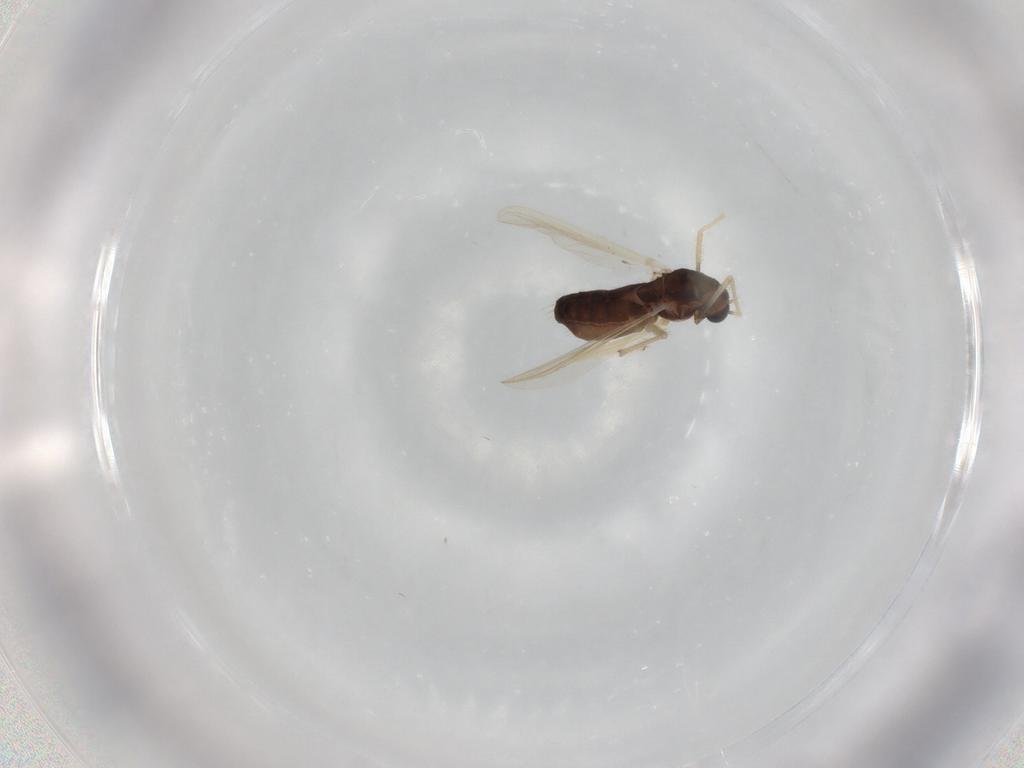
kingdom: Animalia
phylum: Arthropoda
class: Insecta
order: Diptera
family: Chironomidae
